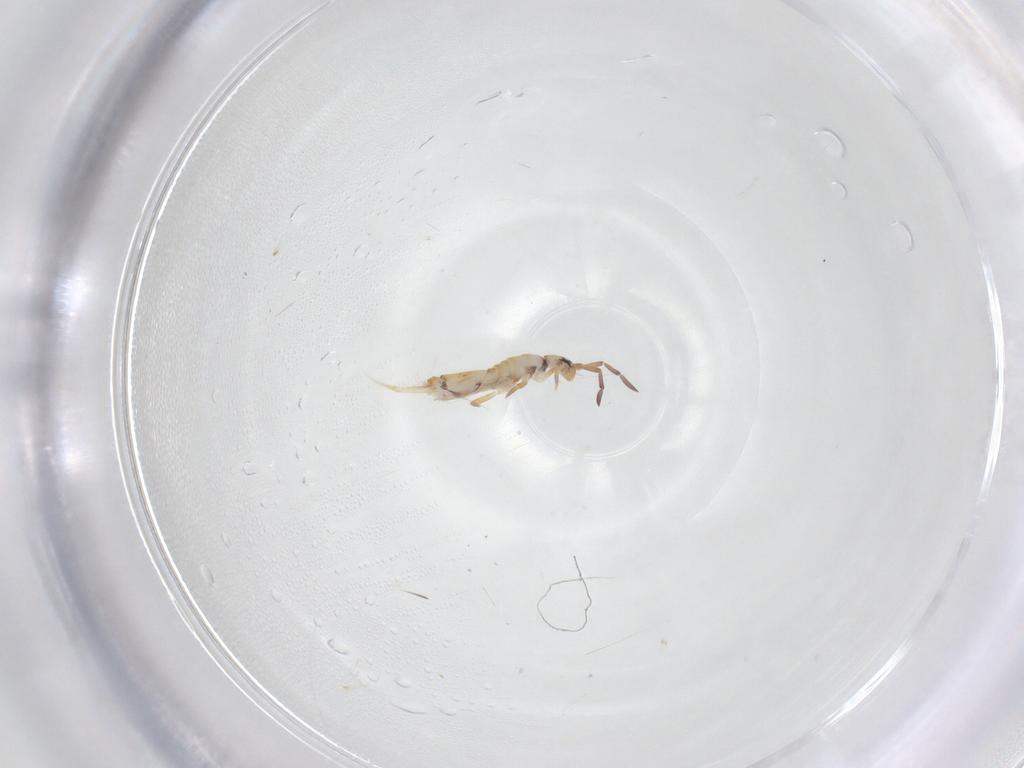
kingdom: Animalia
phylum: Arthropoda
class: Collembola
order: Entomobryomorpha
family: Entomobryidae
